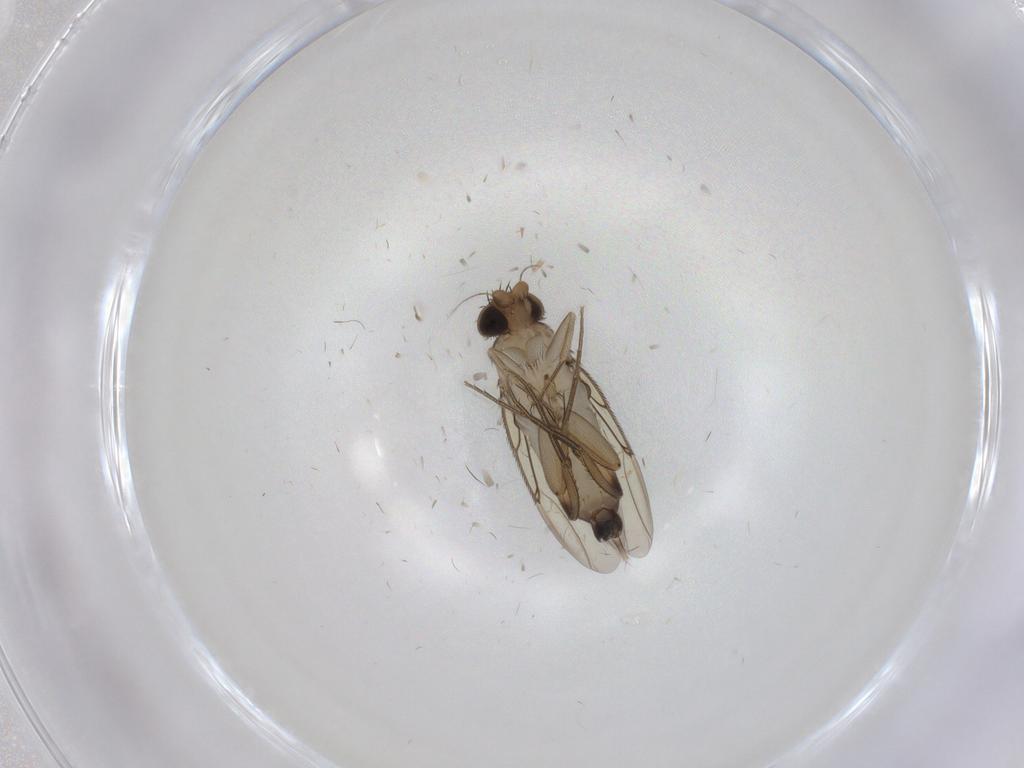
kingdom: Animalia
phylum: Arthropoda
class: Insecta
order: Diptera
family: Phoridae
